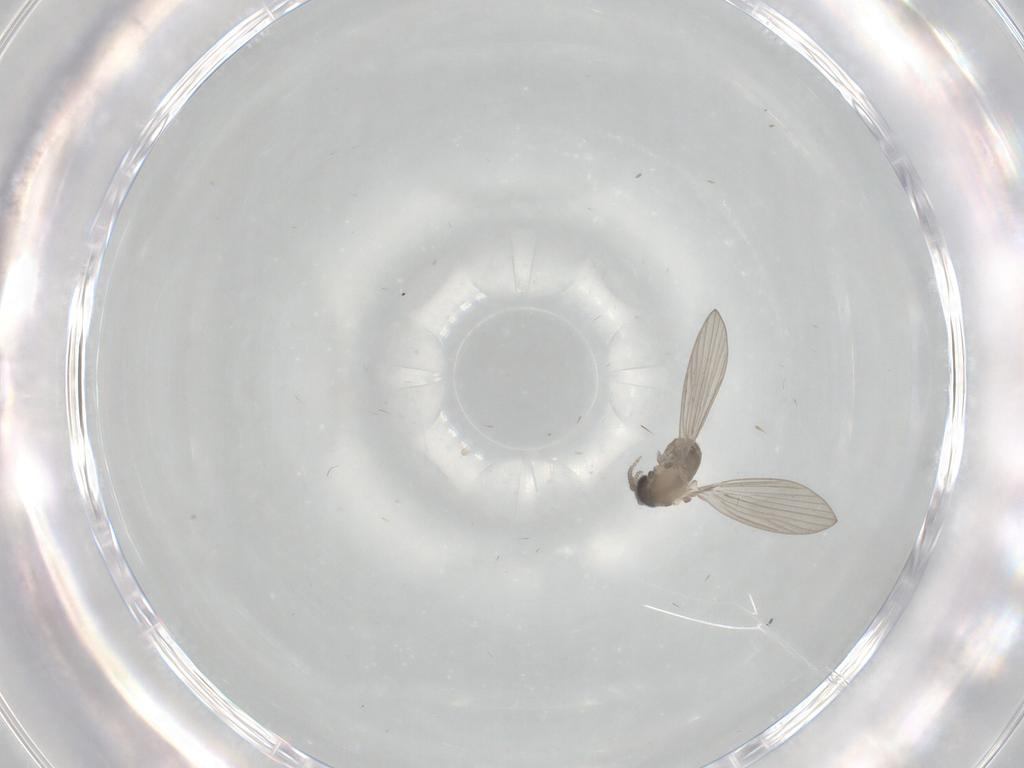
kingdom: Animalia
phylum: Arthropoda
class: Insecta
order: Diptera
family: Psychodidae
